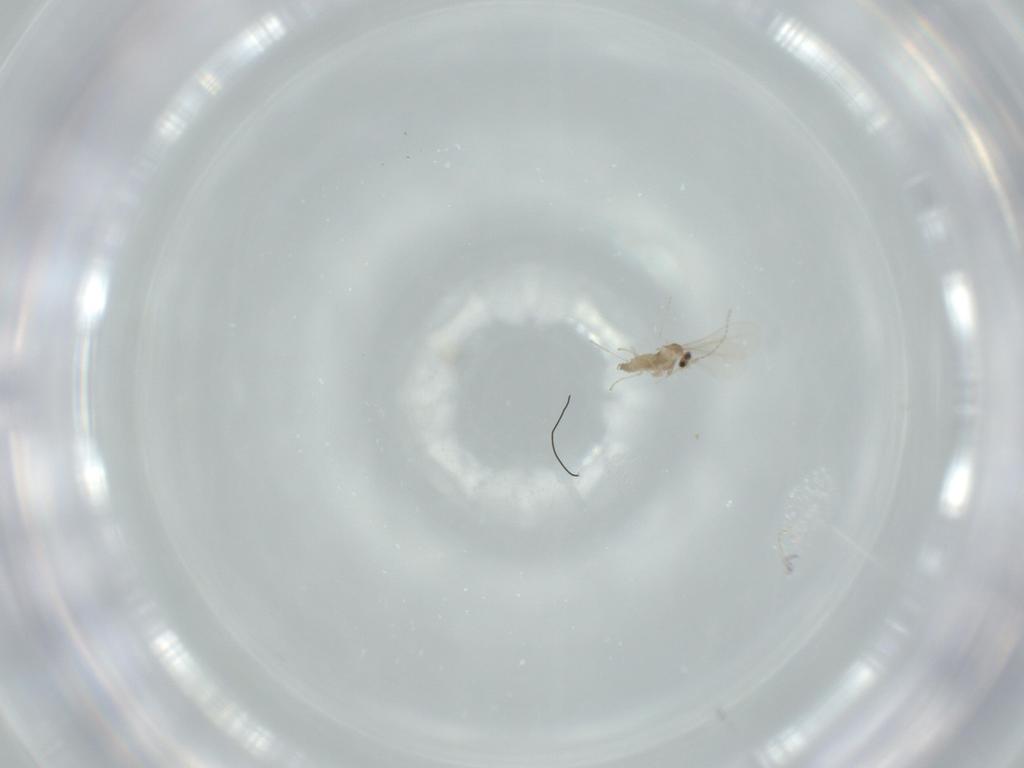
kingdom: Animalia
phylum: Arthropoda
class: Insecta
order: Diptera
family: Cecidomyiidae
